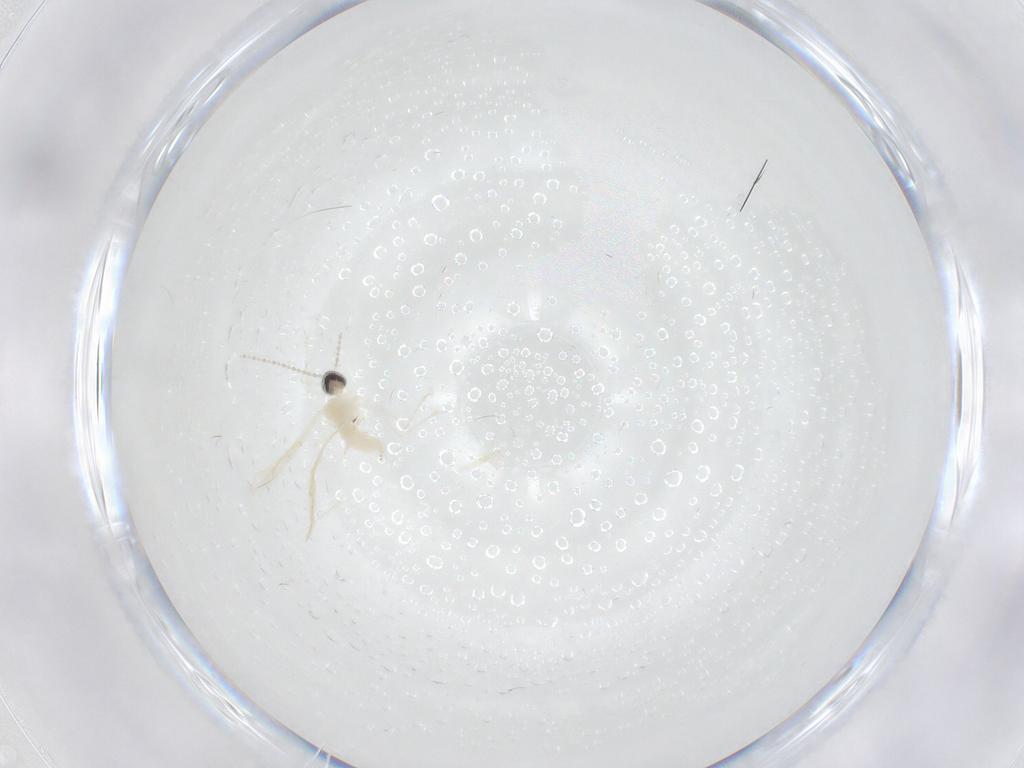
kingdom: Animalia
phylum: Arthropoda
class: Insecta
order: Diptera
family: Cecidomyiidae
